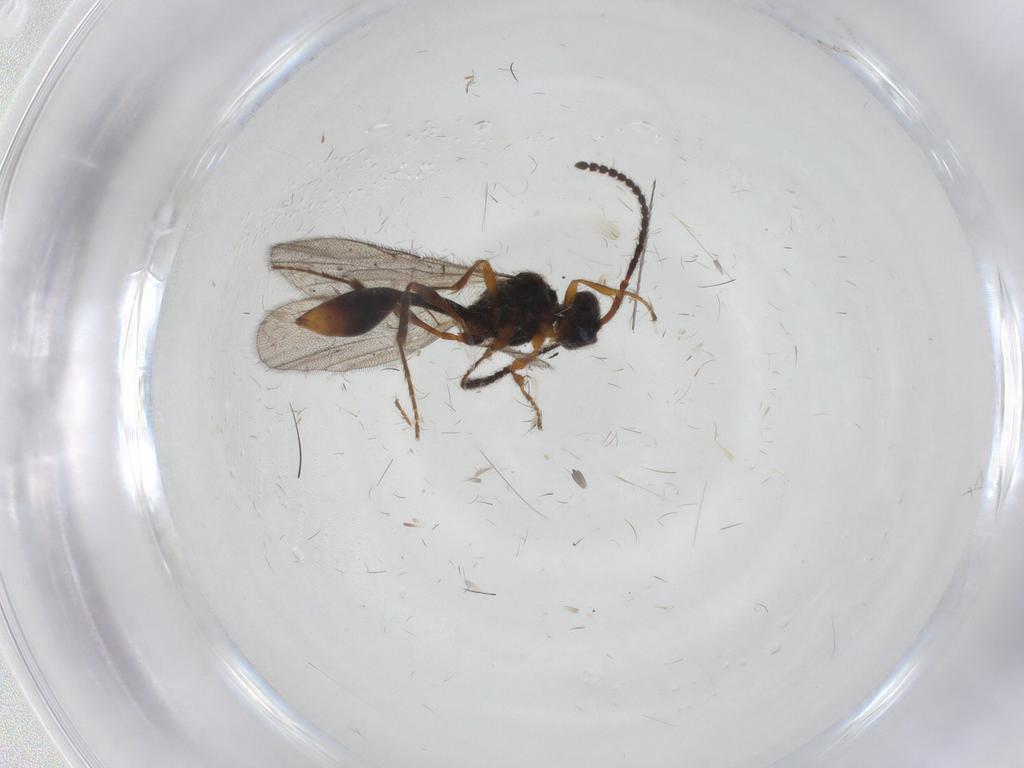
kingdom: Animalia
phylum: Arthropoda
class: Insecta
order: Hymenoptera
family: Diapriidae
